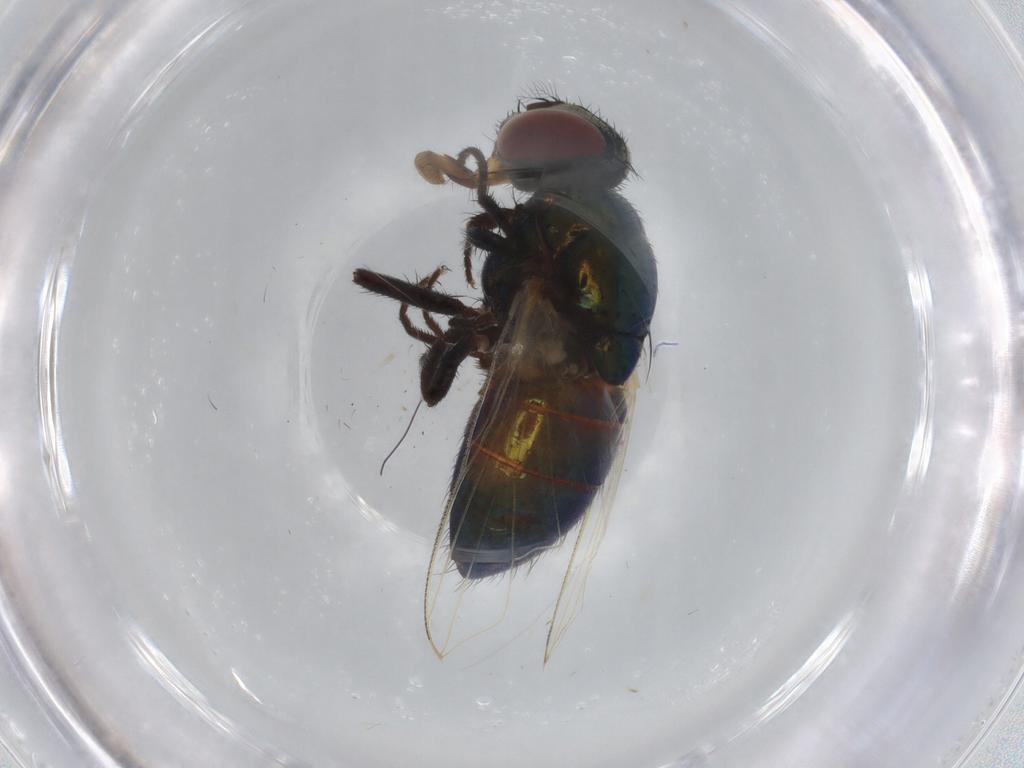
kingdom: Animalia
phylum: Arthropoda
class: Insecta
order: Diptera
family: Muscidae
